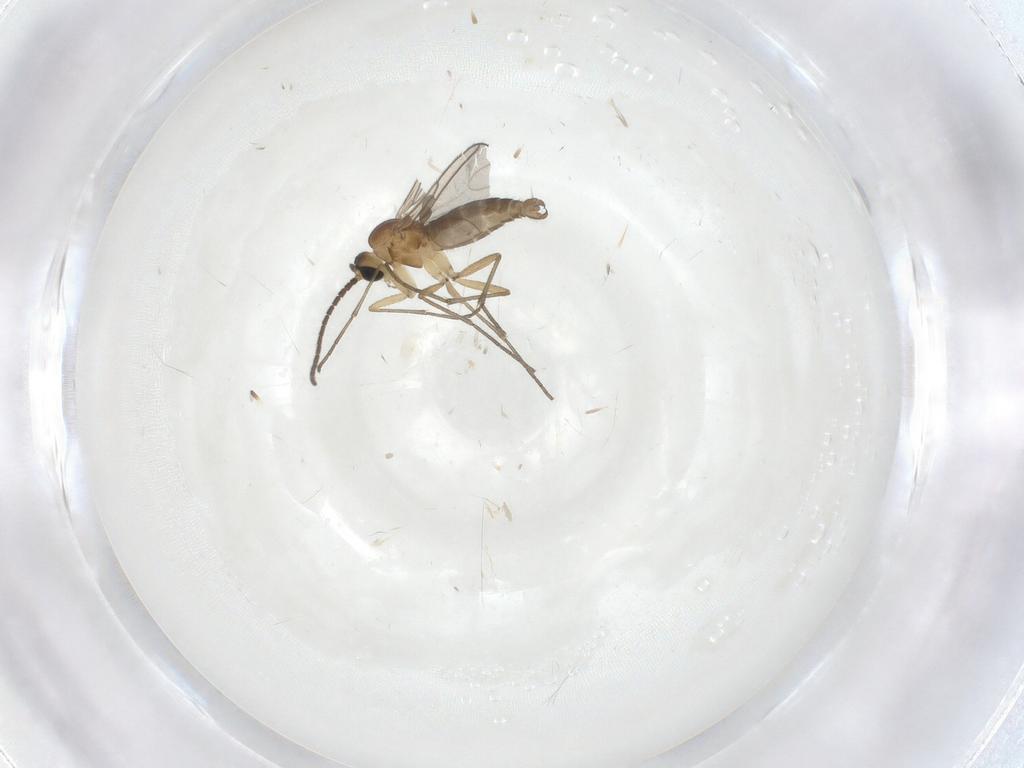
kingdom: Animalia
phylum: Arthropoda
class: Insecta
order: Diptera
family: Sciaridae
